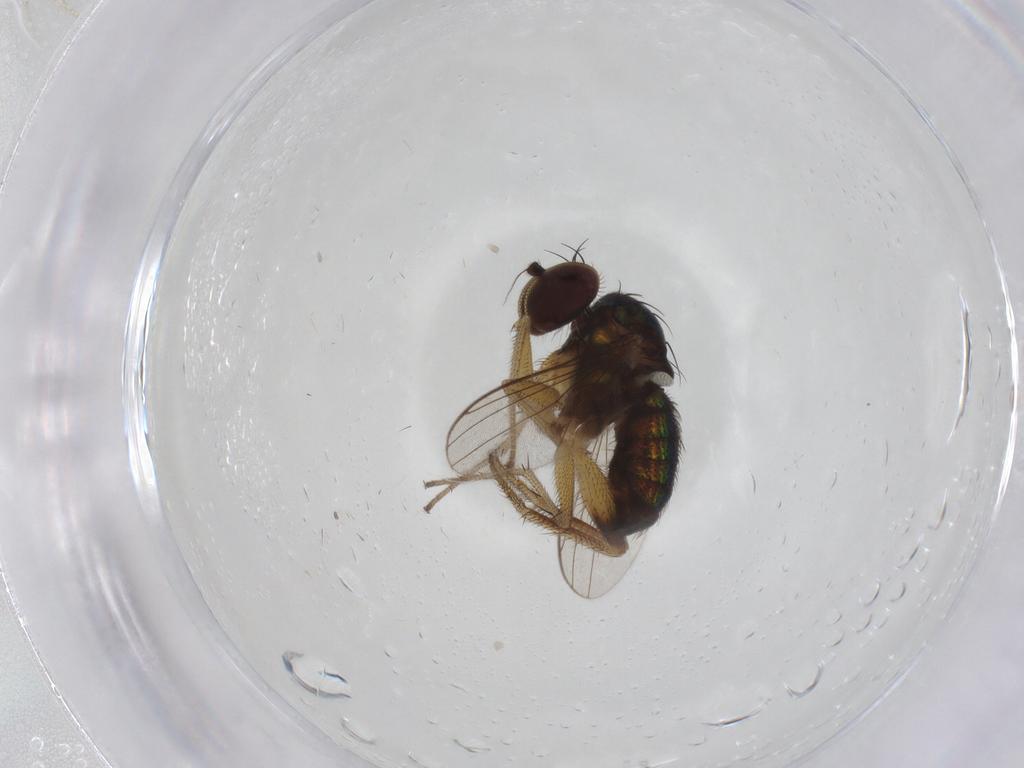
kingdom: Animalia
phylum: Arthropoda
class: Insecta
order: Diptera
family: Dolichopodidae
